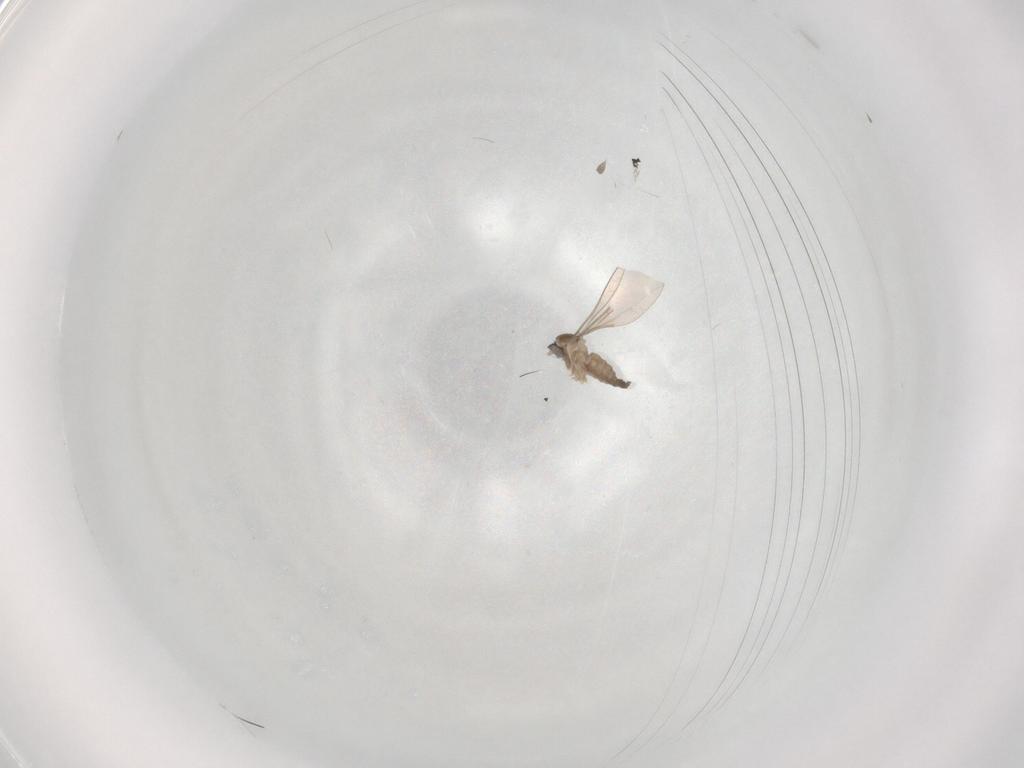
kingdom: Animalia
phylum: Arthropoda
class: Insecta
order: Diptera
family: Cecidomyiidae
